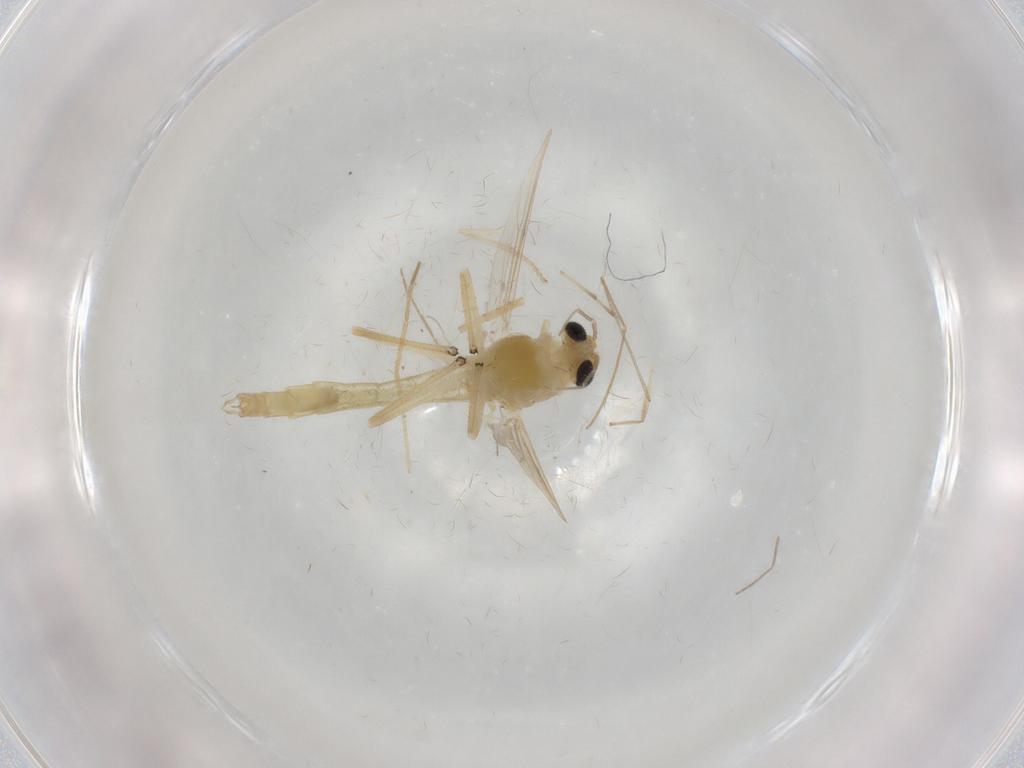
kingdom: Animalia
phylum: Arthropoda
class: Insecta
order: Diptera
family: Chironomidae
